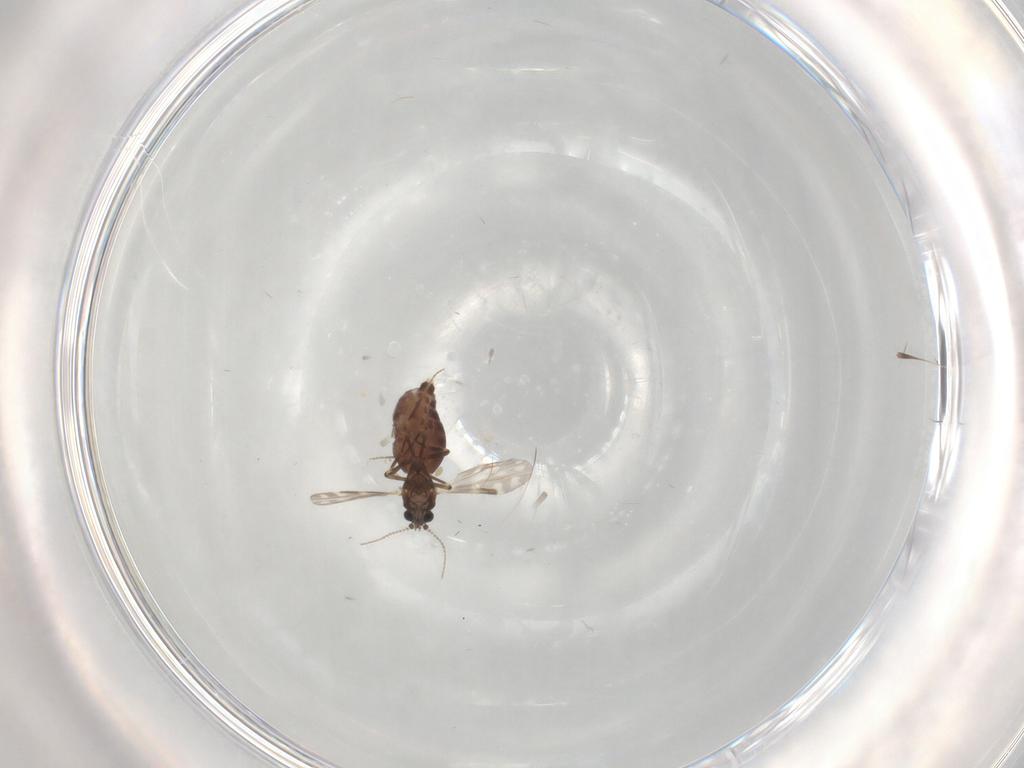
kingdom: Animalia
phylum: Arthropoda
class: Insecta
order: Diptera
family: Ceratopogonidae
